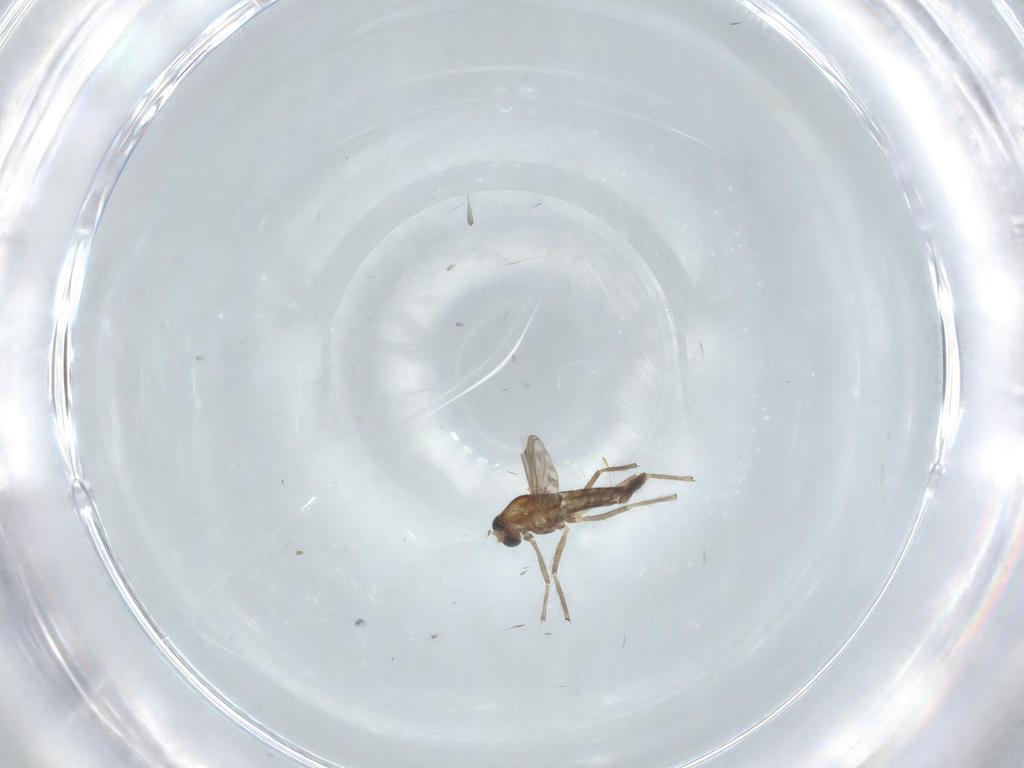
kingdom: Animalia
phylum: Arthropoda
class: Insecta
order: Diptera
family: Chironomidae
